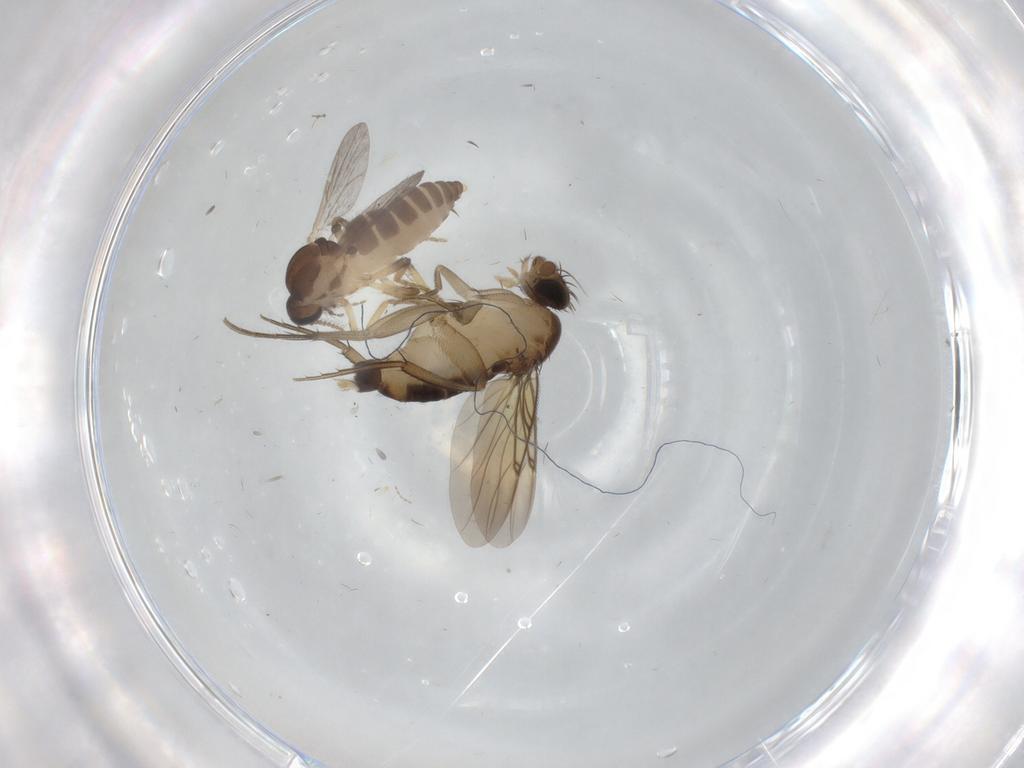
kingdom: Animalia
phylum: Arthropoda
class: Insecta
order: Diptera
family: Ceratopogonidae
